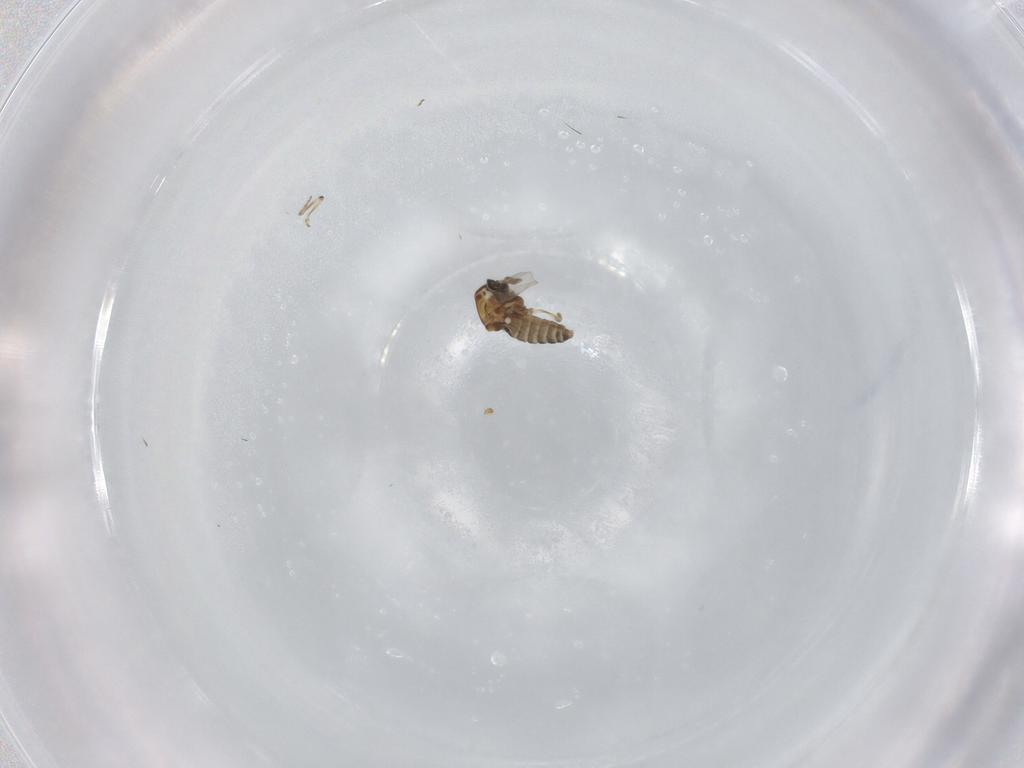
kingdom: Animalia
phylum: Arthropoda
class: Insecta
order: Diptera
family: Ceratopogonidae
